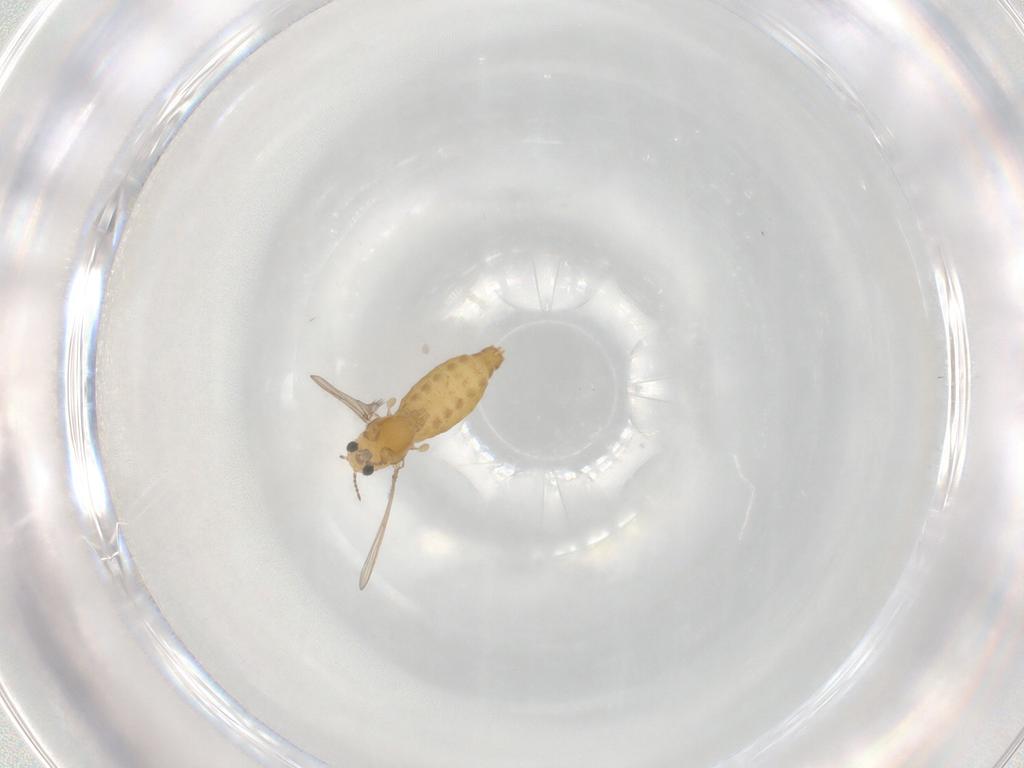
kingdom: Animalia
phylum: Arthropoda
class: Insecta
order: Diptera
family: Chironomidae
